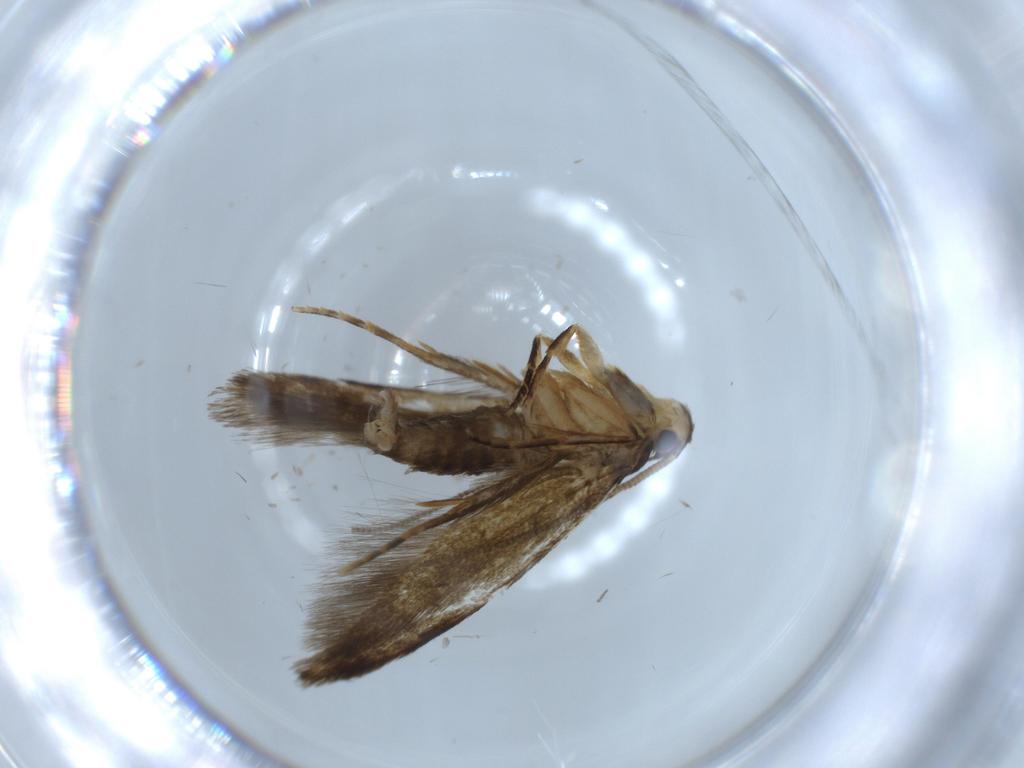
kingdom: Animalia
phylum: Arthropoda
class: Insecta
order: Lepidoptera
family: Tineidae
